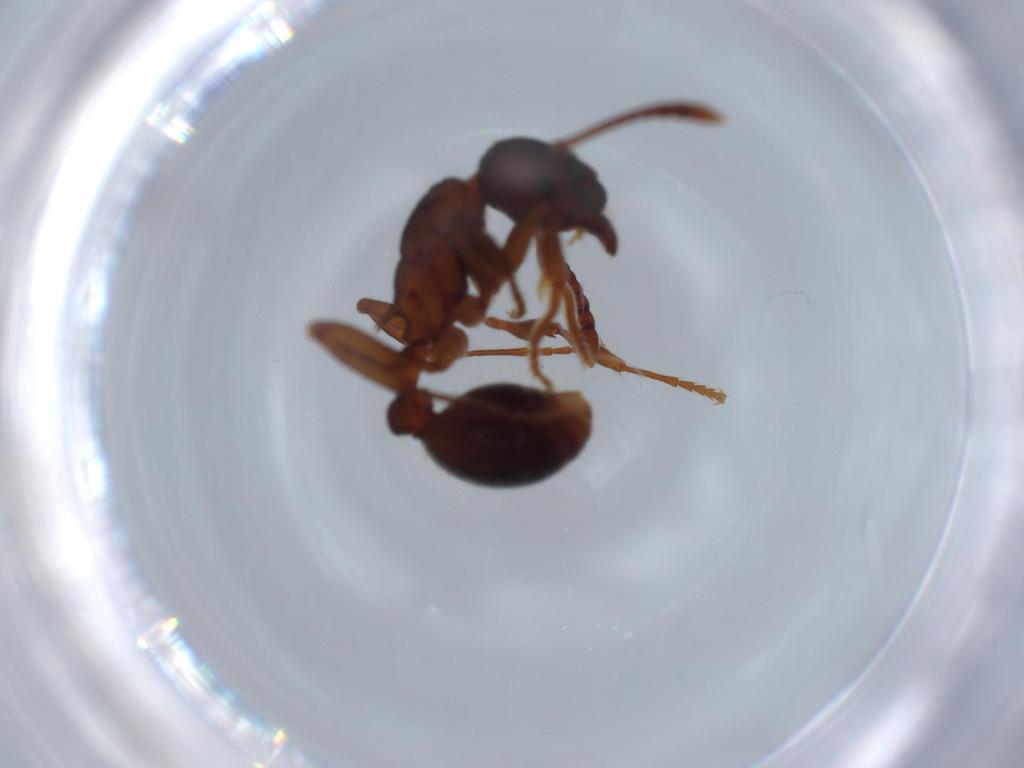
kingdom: Animalia
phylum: Arthropoda
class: Insecta
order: Hymenoptera
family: Formicidae
